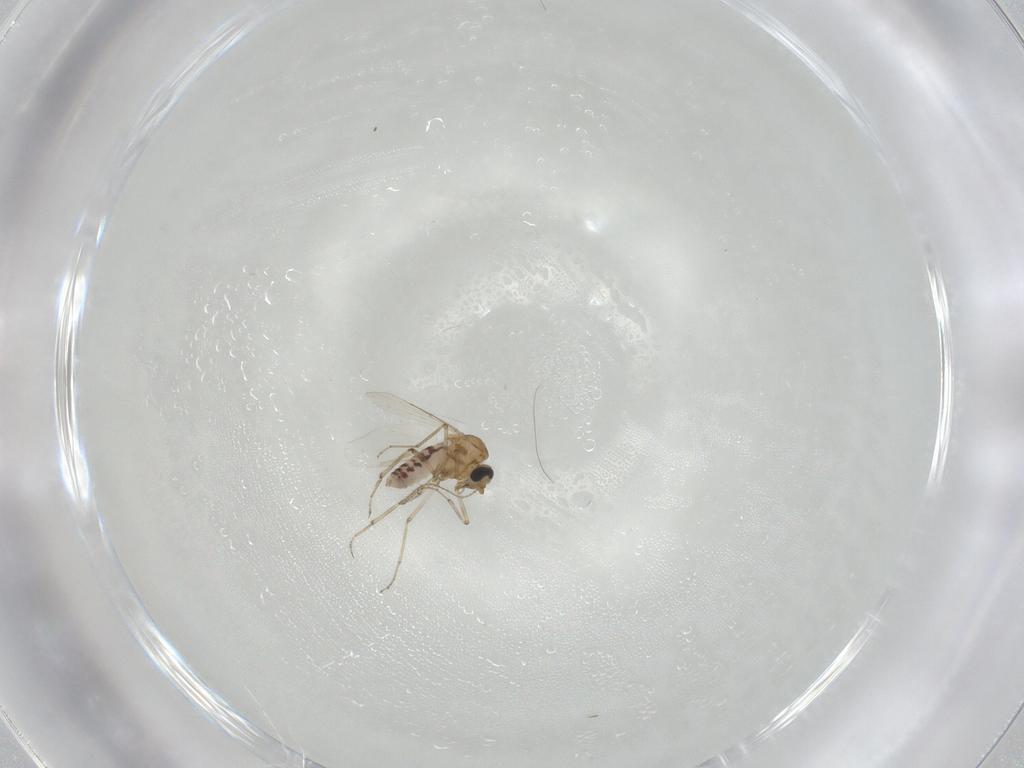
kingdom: Animalia
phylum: Arthropoda
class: Insecta
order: Diptera
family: Ceratopogonidae
